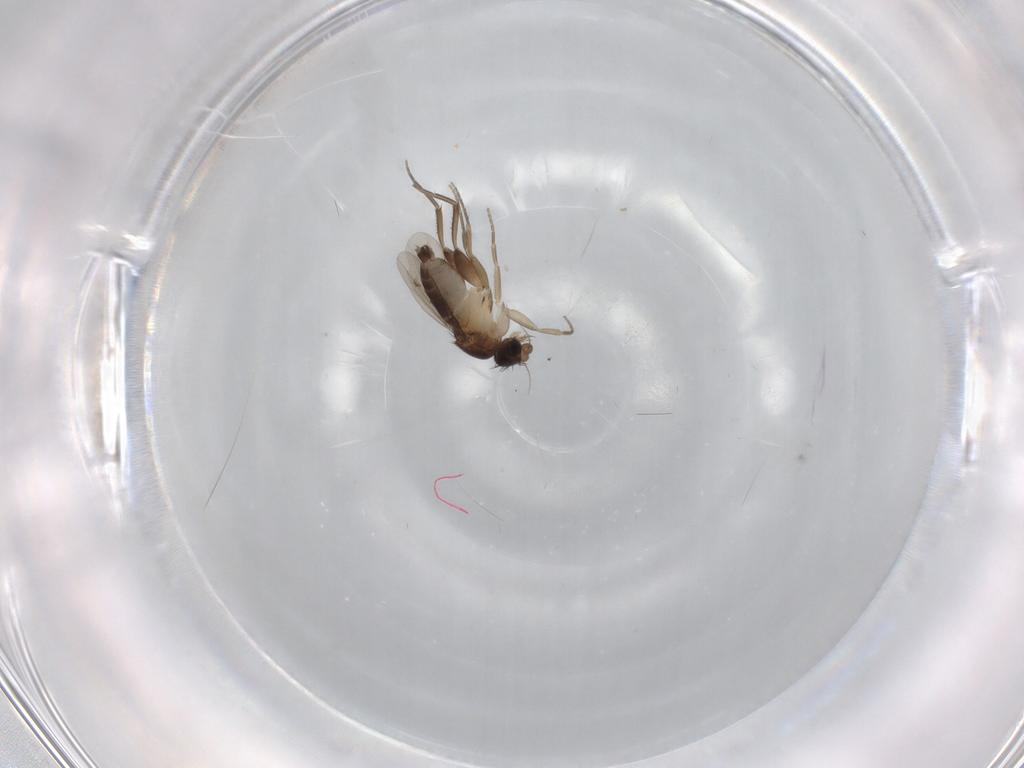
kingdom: Animalia
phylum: Arthropoda
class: Insecta
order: Diptera
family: Phoridae
